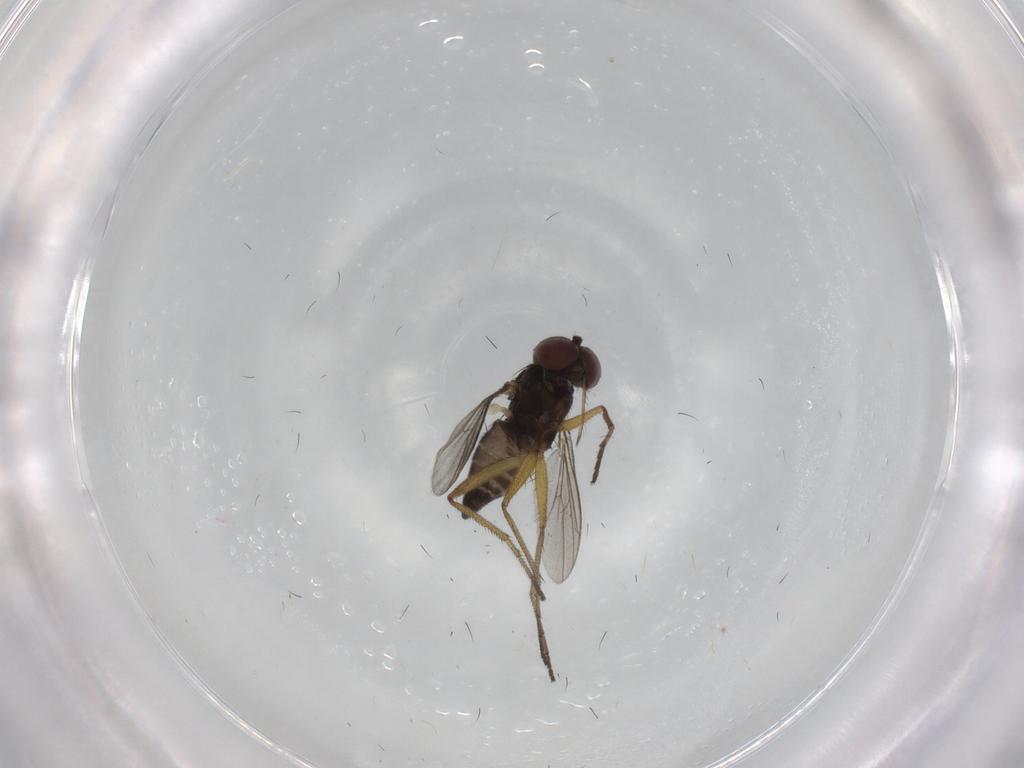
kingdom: Animalia
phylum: Arthropoda
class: Insecta
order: Diptera
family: Dolichopodidae
